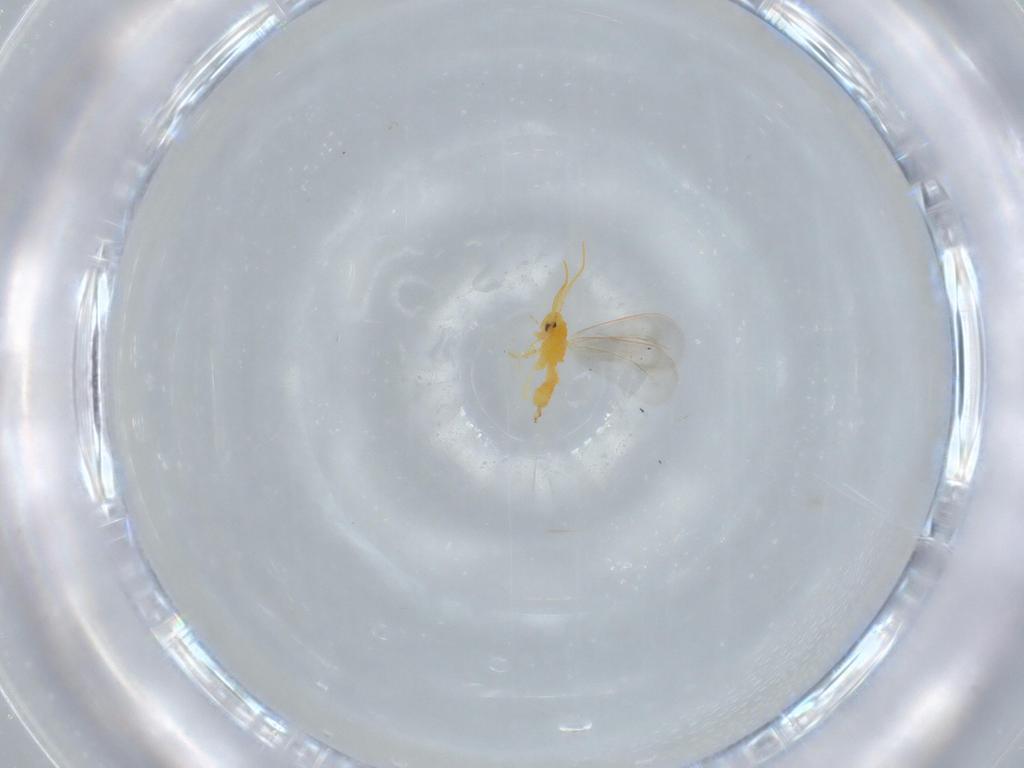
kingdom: Animalia
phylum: Arthropoda
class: Insecta
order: Hemiptera
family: Aleyrodidae
